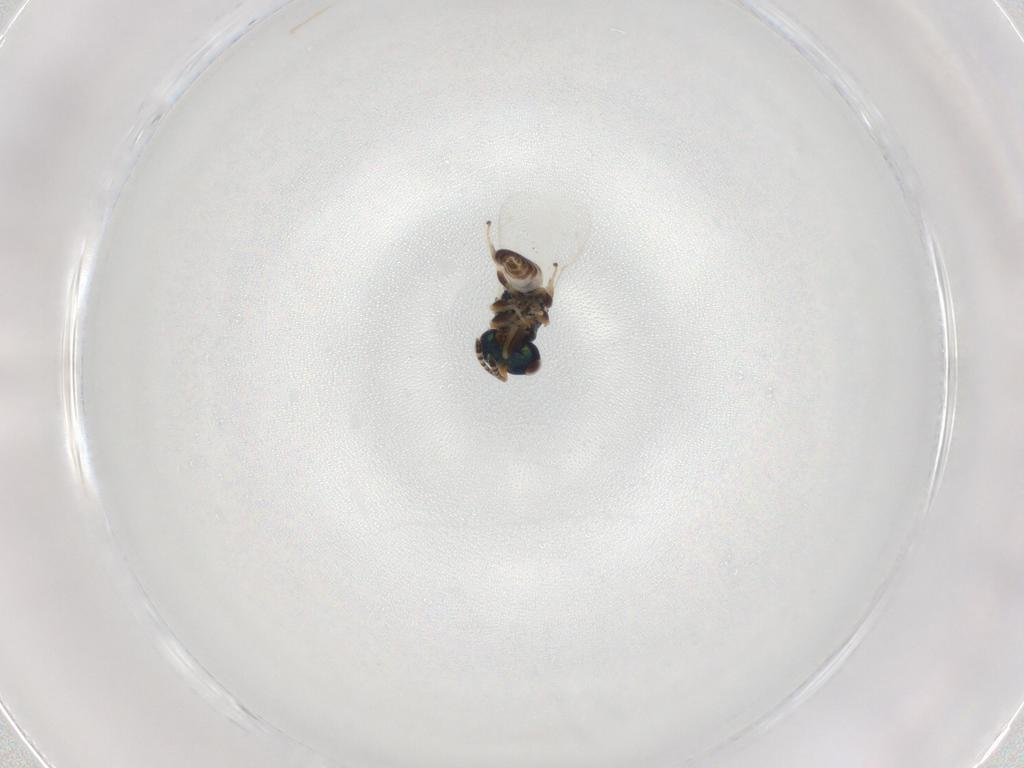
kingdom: Animalia
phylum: Arthropoda
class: Insecta
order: Hymenoptera
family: Pteromalidae
